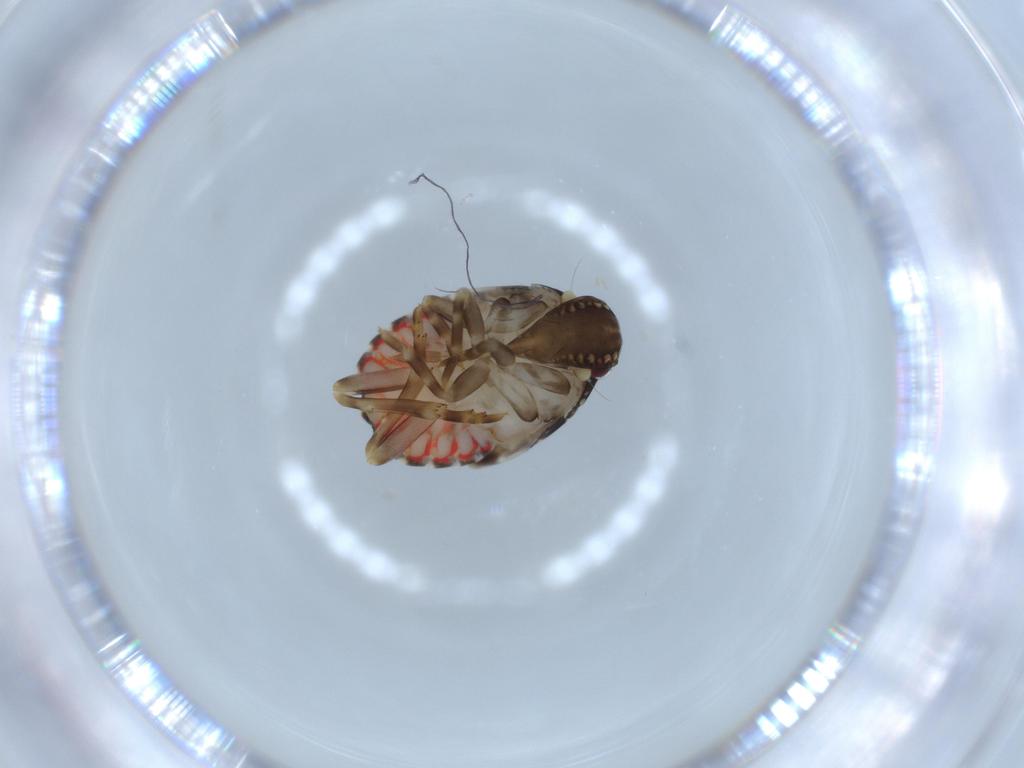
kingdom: Animalia
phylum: Arthropoda
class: Insecta
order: Hemiptera
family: Achilidae
